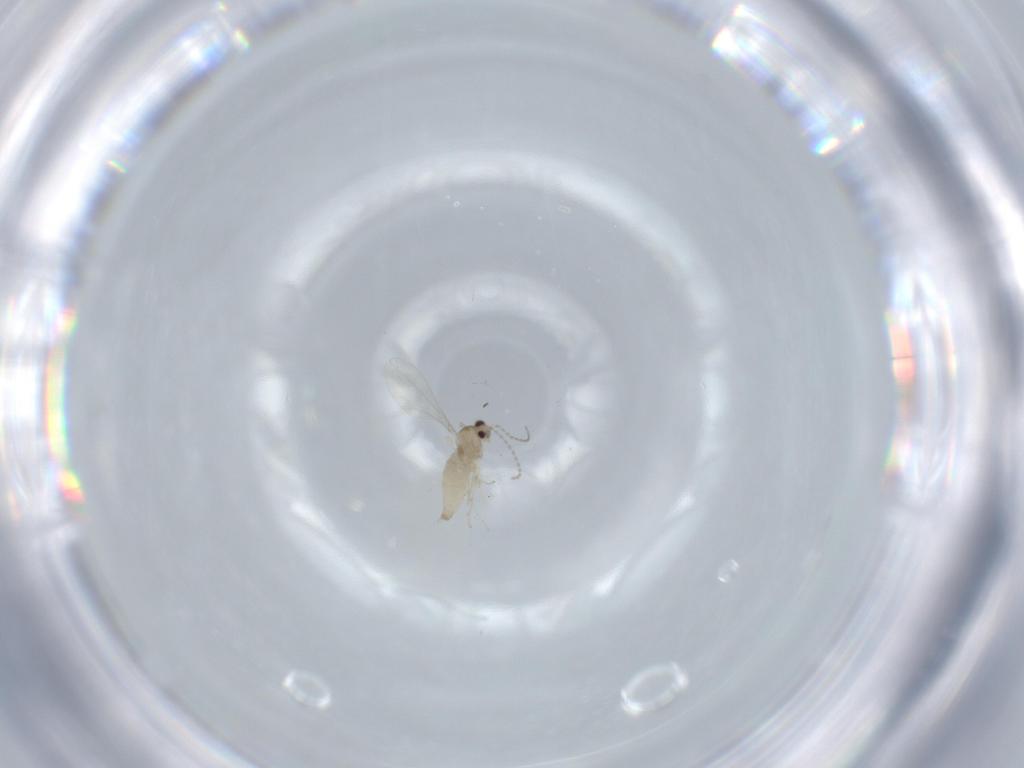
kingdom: Animalia
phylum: Arthropoda
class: Insecta
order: Diptera
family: Cecidomyiidae
